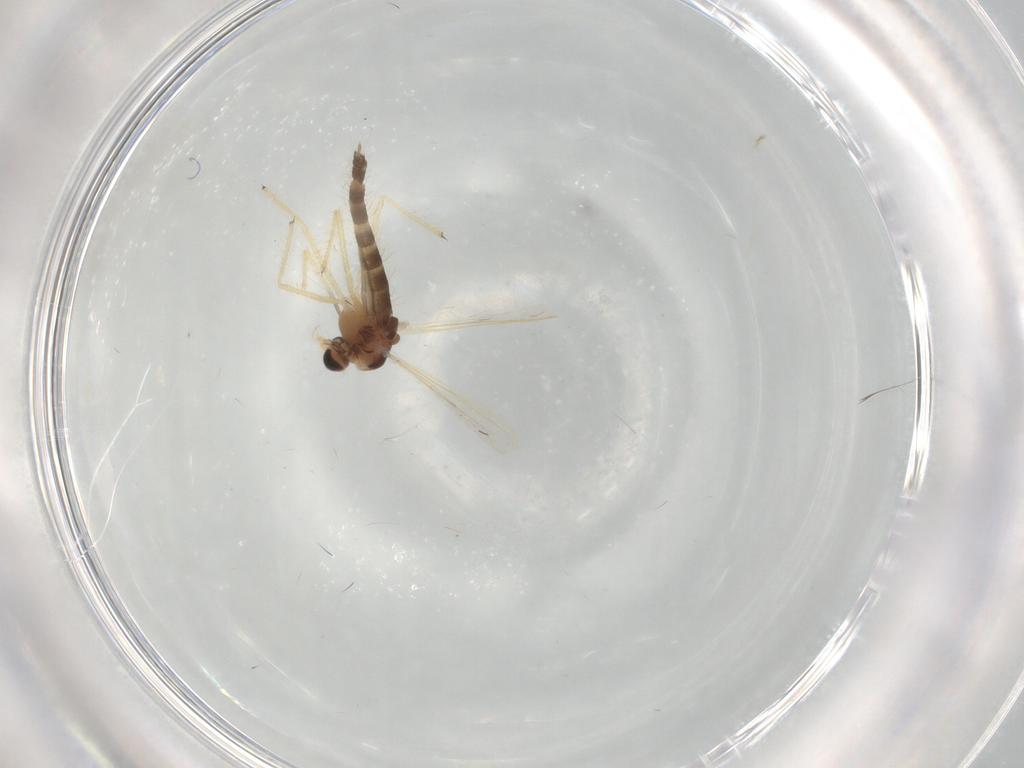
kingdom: Animalia
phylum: Arthropoda
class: Insecta
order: Diptera
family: Chironomidae
